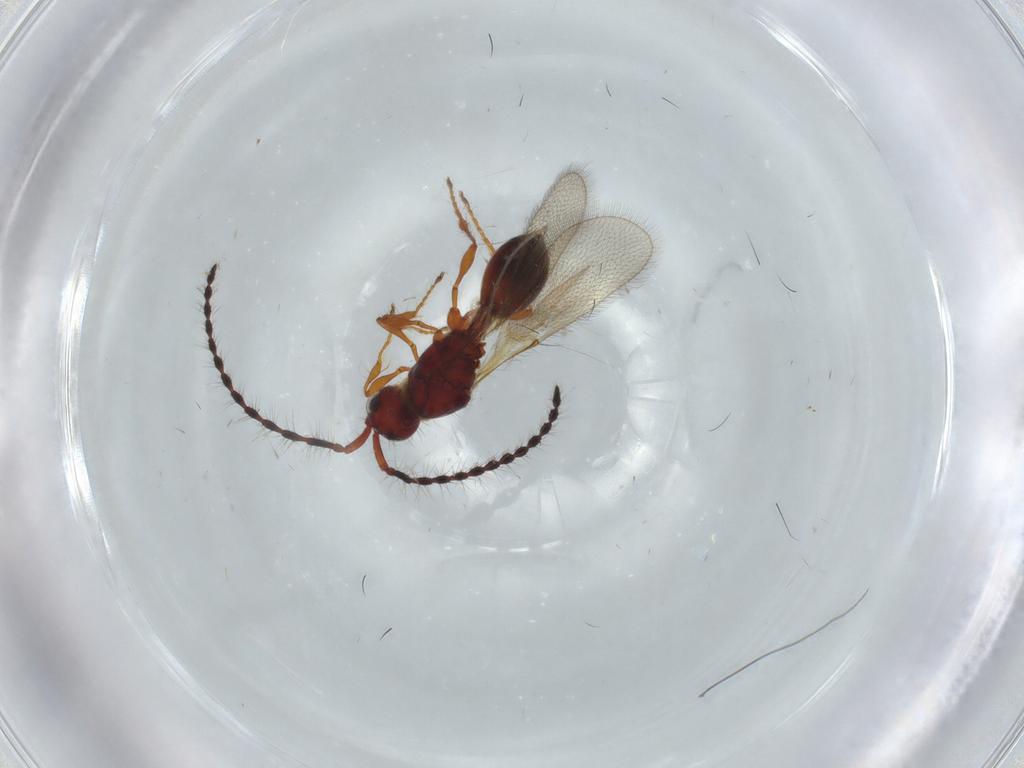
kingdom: Animalia
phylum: Arthropoda
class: Insecta
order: Hymenoptera
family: Diapriidae
